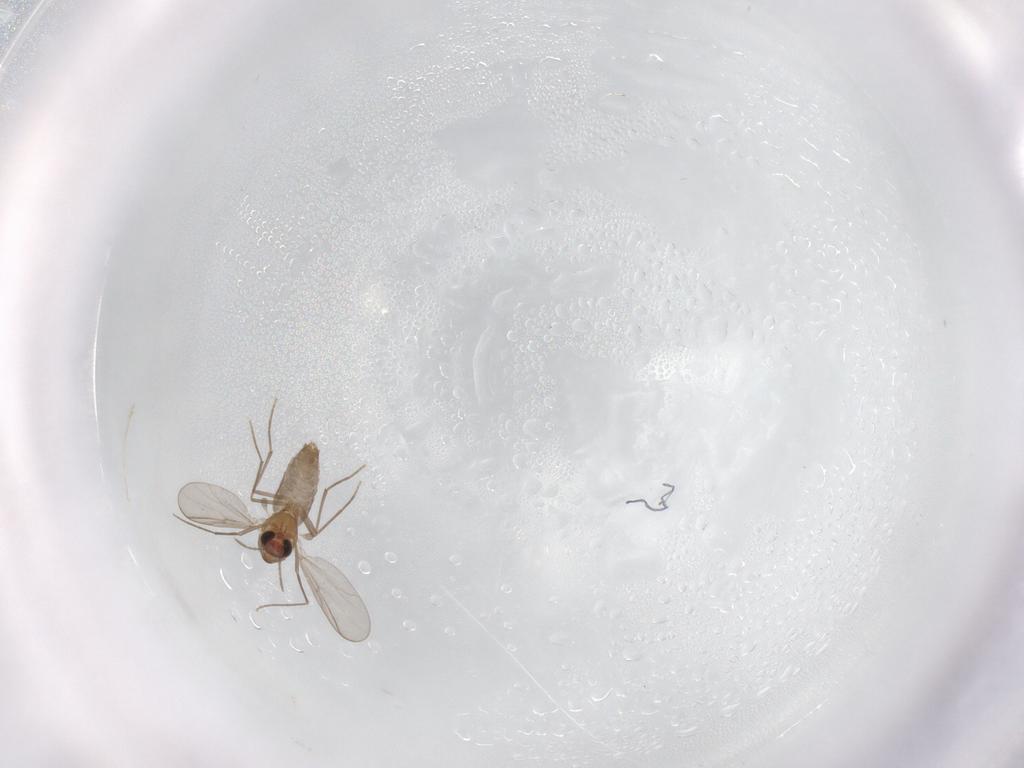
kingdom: Animalia
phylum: Arthropoda
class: Insecta
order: Diptera
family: Chironomidae
